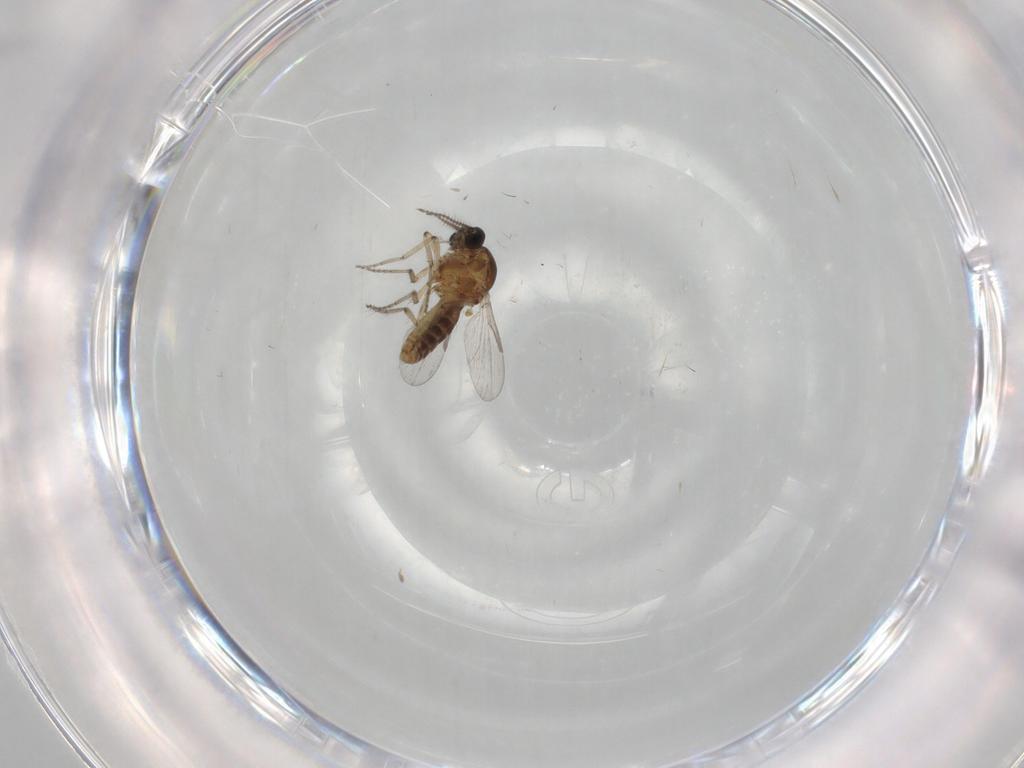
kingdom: Animalia
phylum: Arthropoda
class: Insecta
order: Diptera
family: Ceratopogonidae
